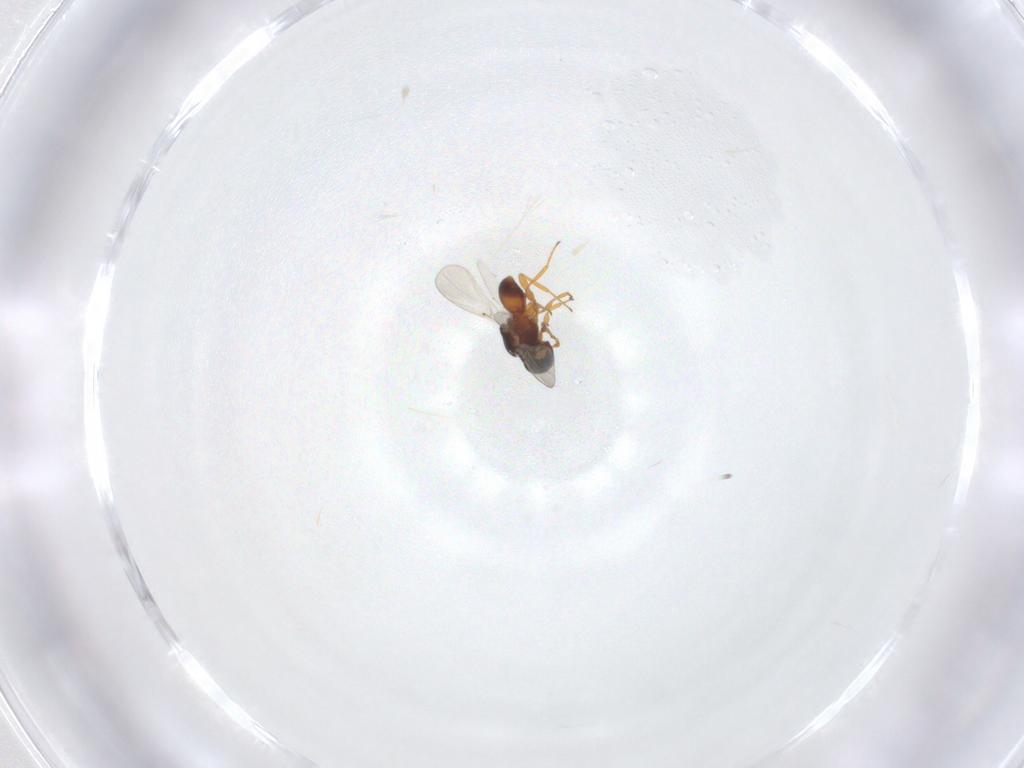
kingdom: Animalia
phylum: Arthropoda
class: Insecta
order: Hymenoptera
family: Platygastridae
